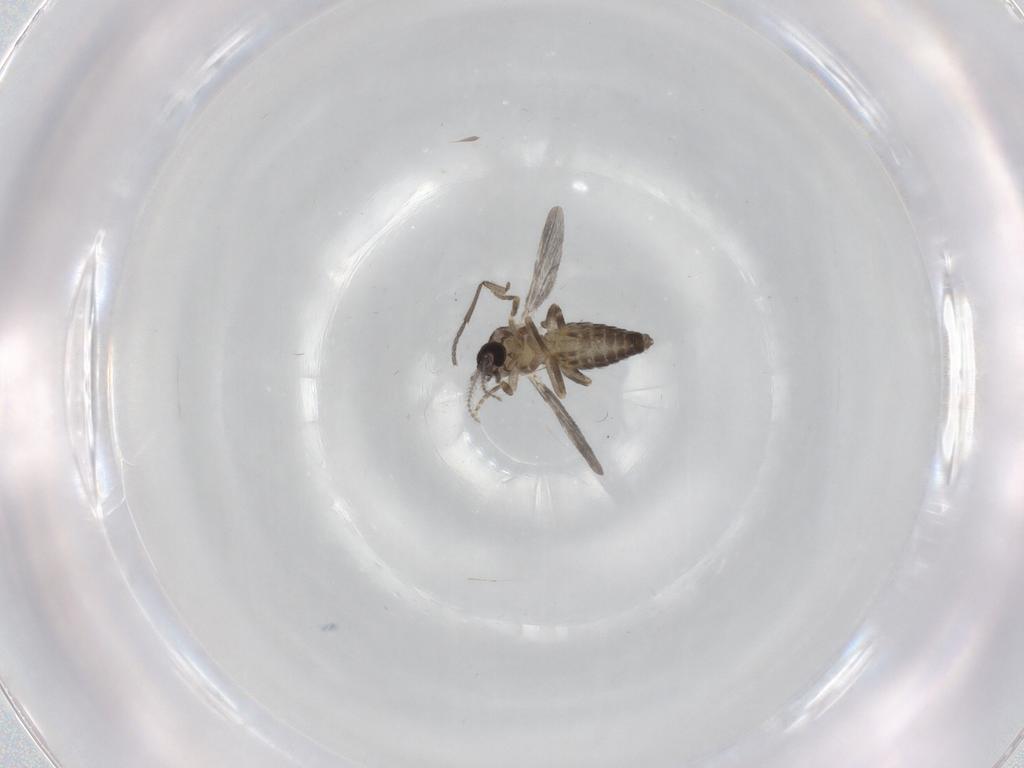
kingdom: Animalia
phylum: Arthropoda
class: Insecta
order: Diptera
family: Ceratopogonidae
